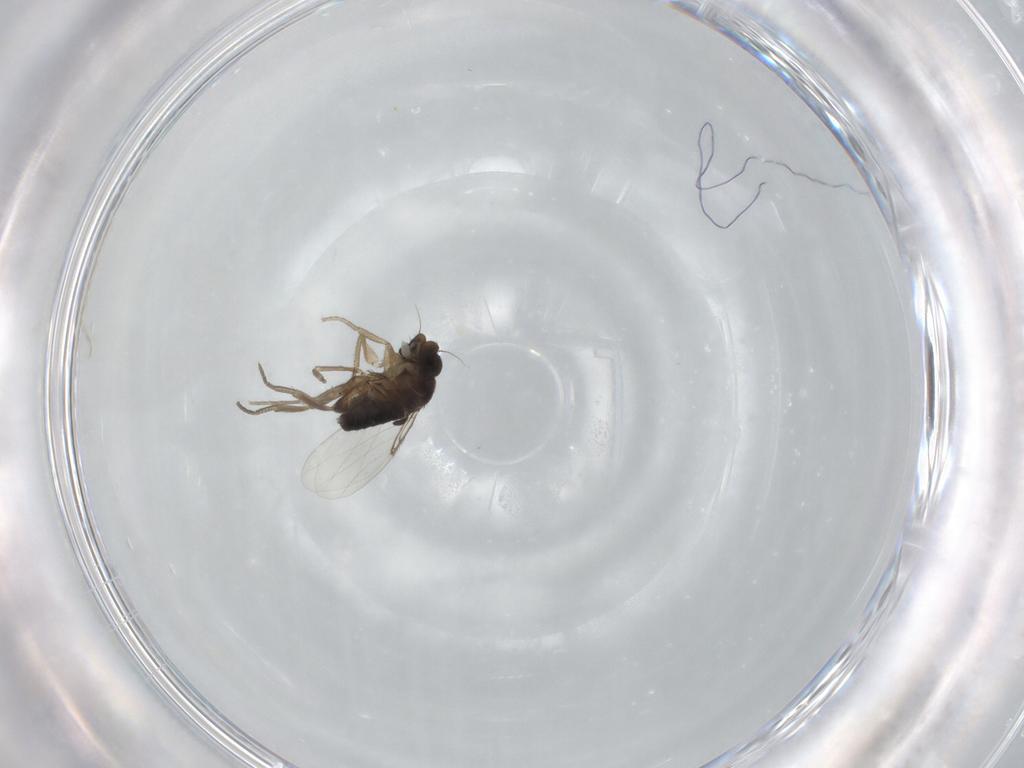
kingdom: Animalia
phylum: Arthropoda
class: Insecta
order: Diptera
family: Phoridae
